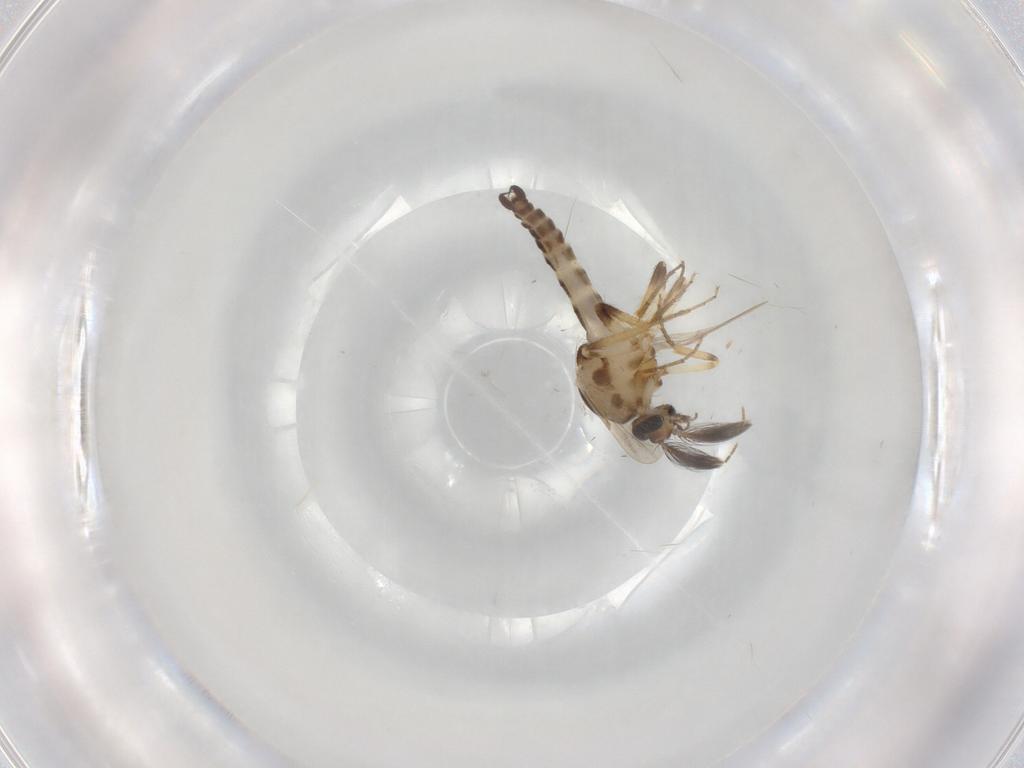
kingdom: Animalia
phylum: Arthropoda
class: Insecta
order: Diptera
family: Ceratopogonidae
